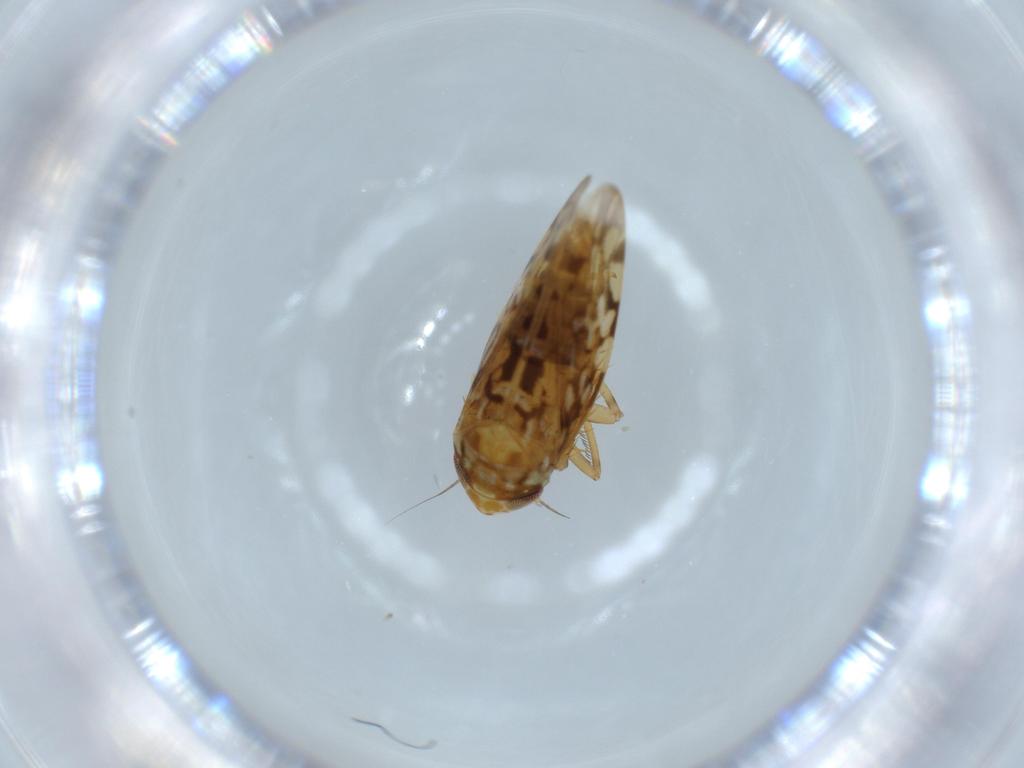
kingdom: Animalia
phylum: Arthropoda
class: Insecta
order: Hemiptera
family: Cicadellidae
